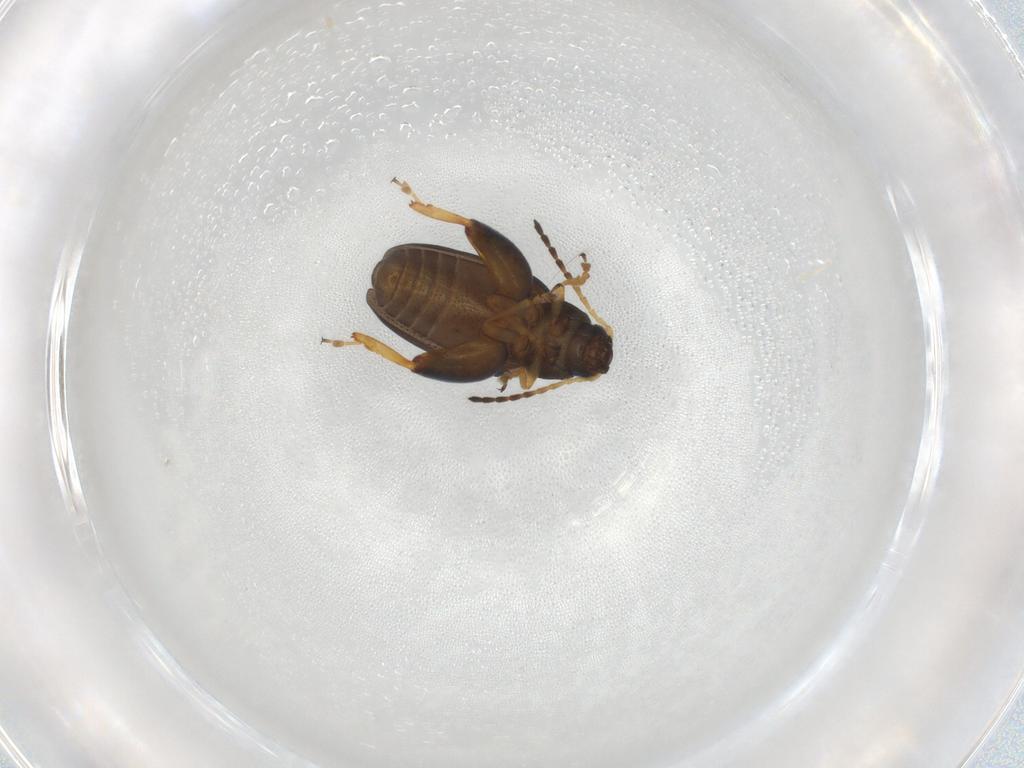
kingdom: Animalia
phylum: Arthropoda
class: Insecta
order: Coleoptera
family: Chrysomelidae
